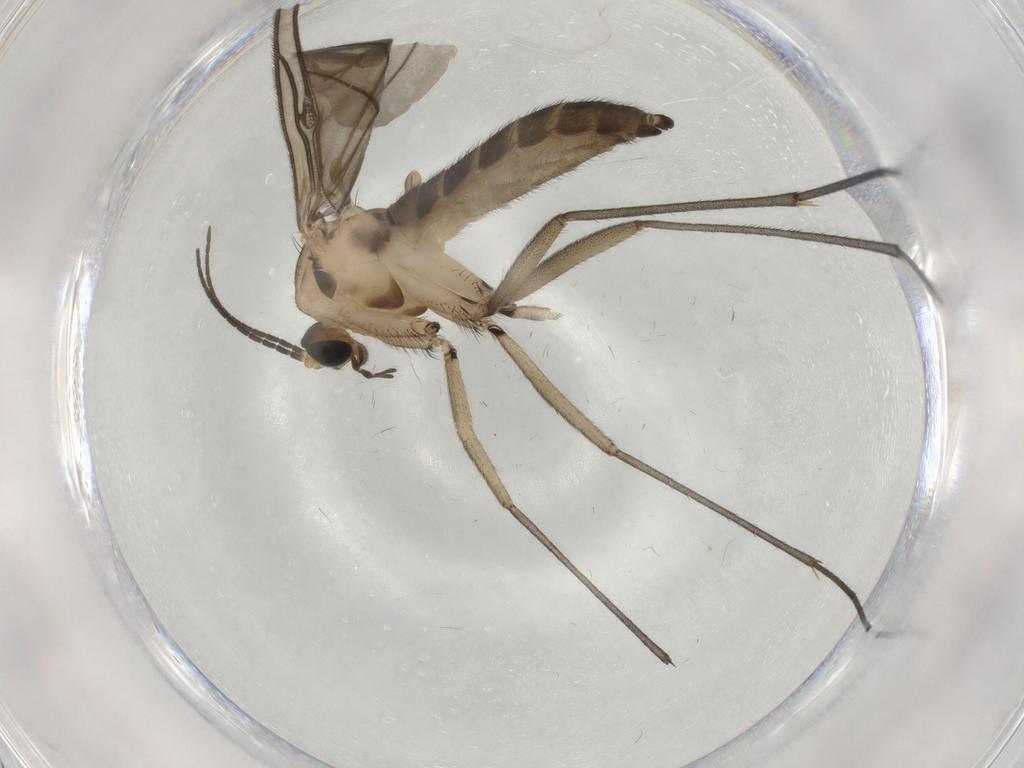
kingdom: Animalia
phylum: Arthropoda
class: Insecta
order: Diptera
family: Sciaridae
